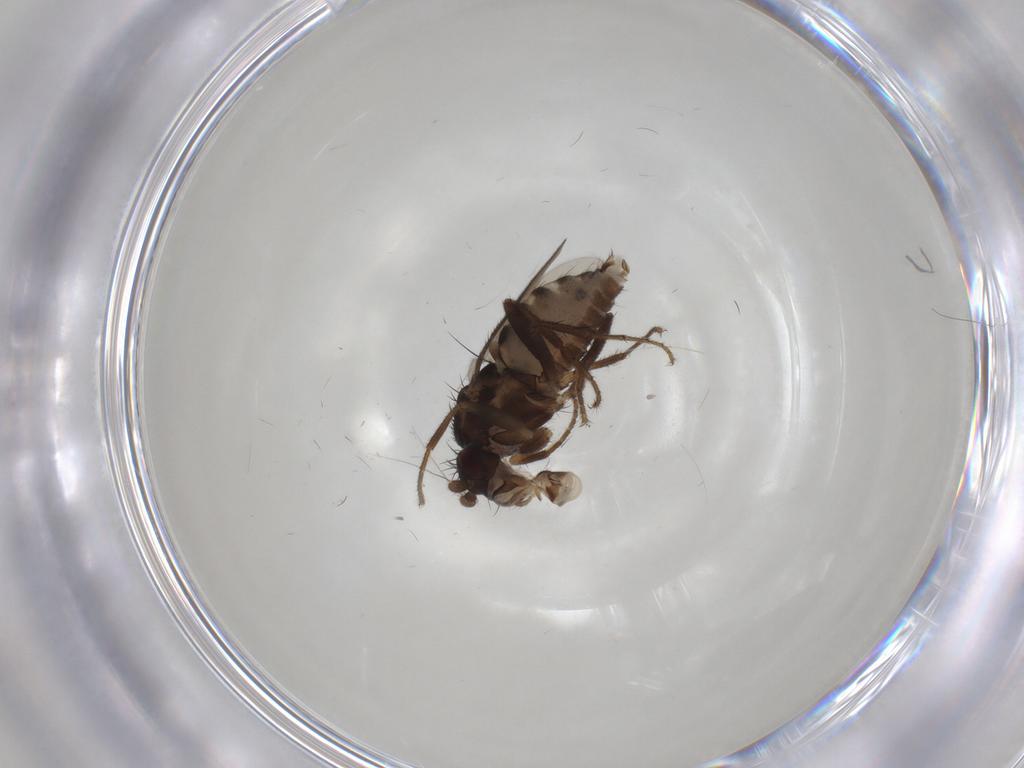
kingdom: Animalia
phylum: Arthropoda
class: Insecta
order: Diptera
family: Sphaeroceridae
